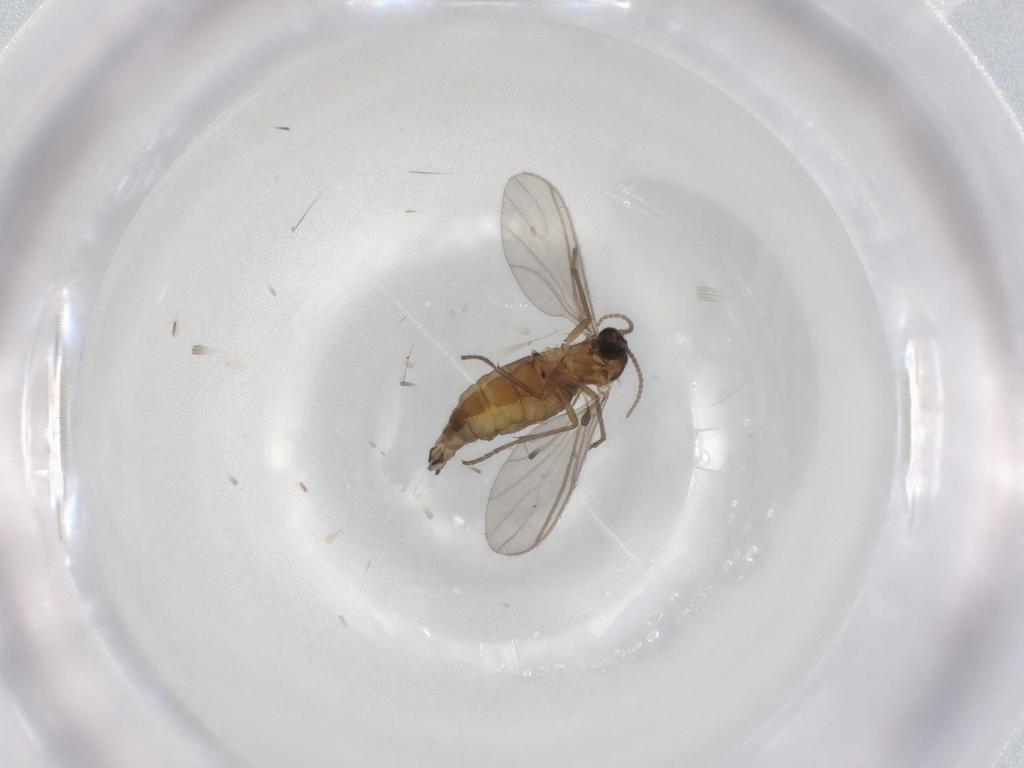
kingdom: Animalia
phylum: Arthropoda
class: Insecta
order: Diptera
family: Sciaridae
